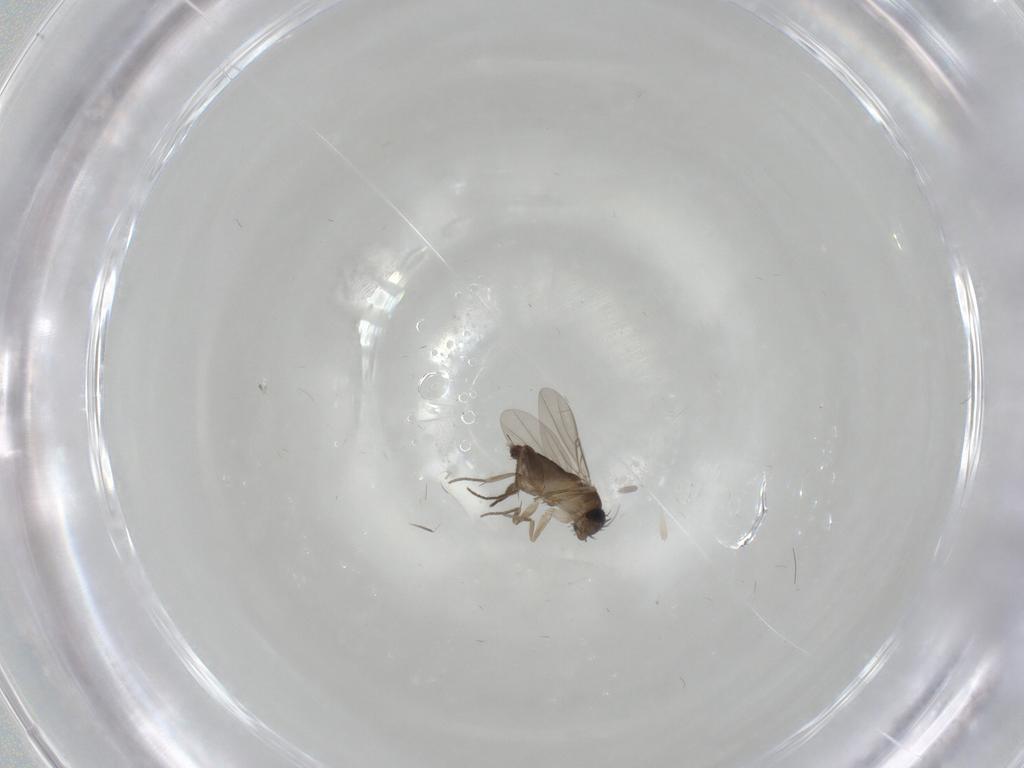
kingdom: Animalia
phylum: Arthropoda
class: Insecta
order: Diptera
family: Phoridae
